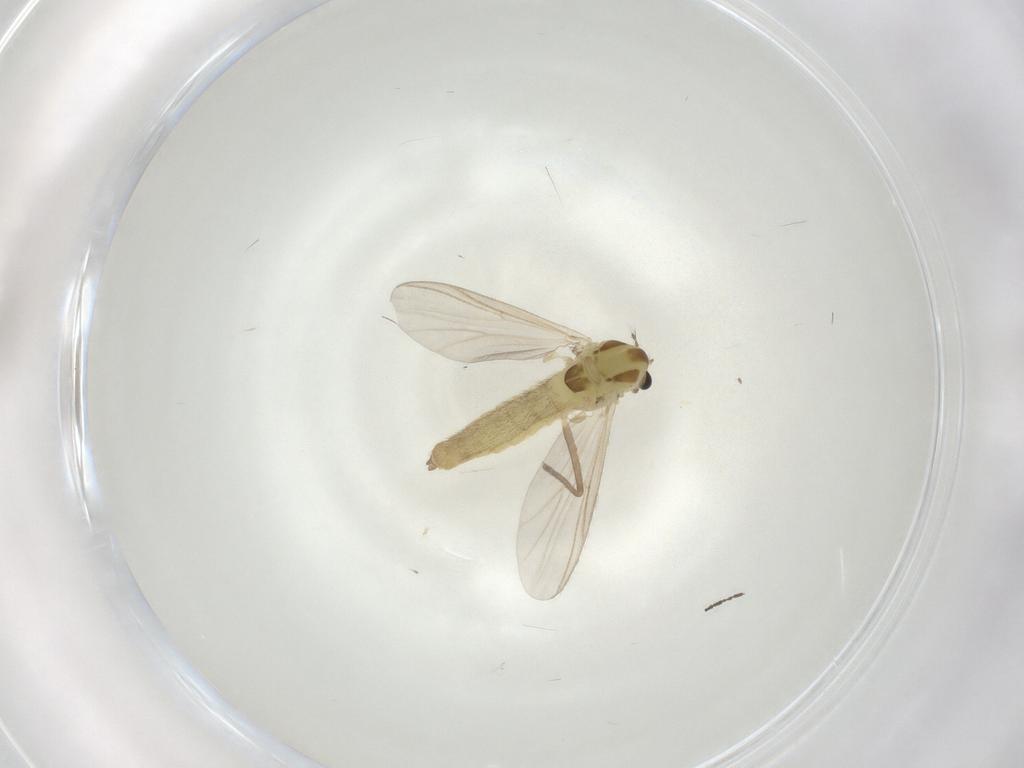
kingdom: Animalia
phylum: Arthropoda
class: Insecta
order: Diptera
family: Chironomidae
